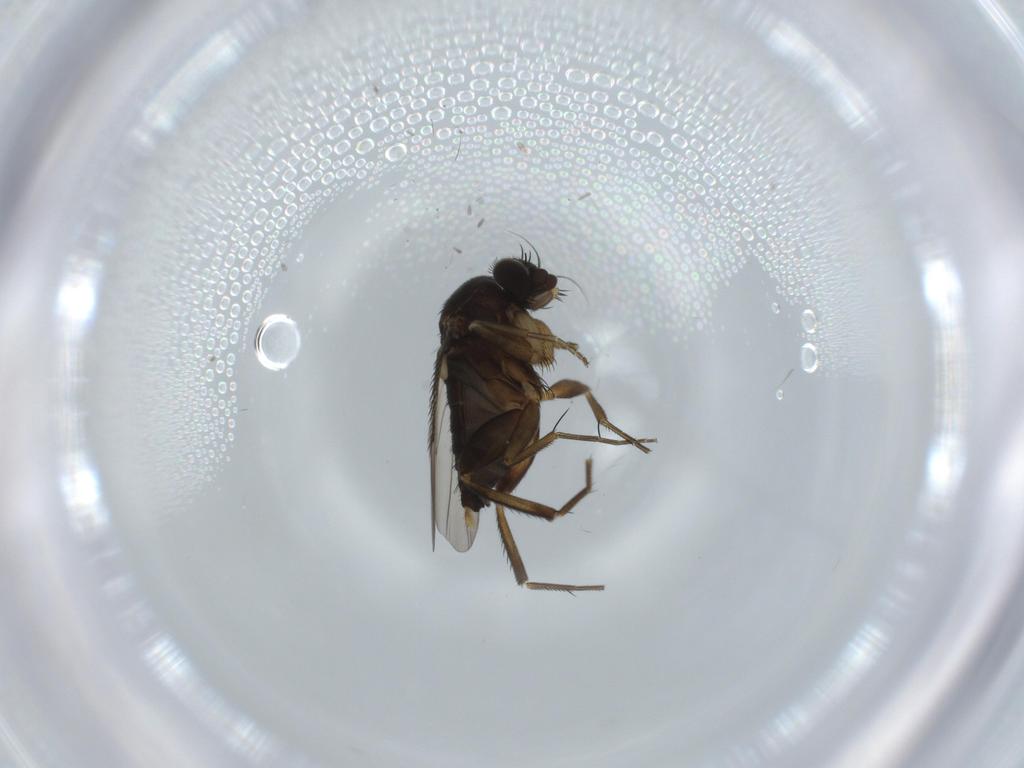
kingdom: Animalia
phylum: Arthropoda
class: Insecta
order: Diptera
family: Phoridae
